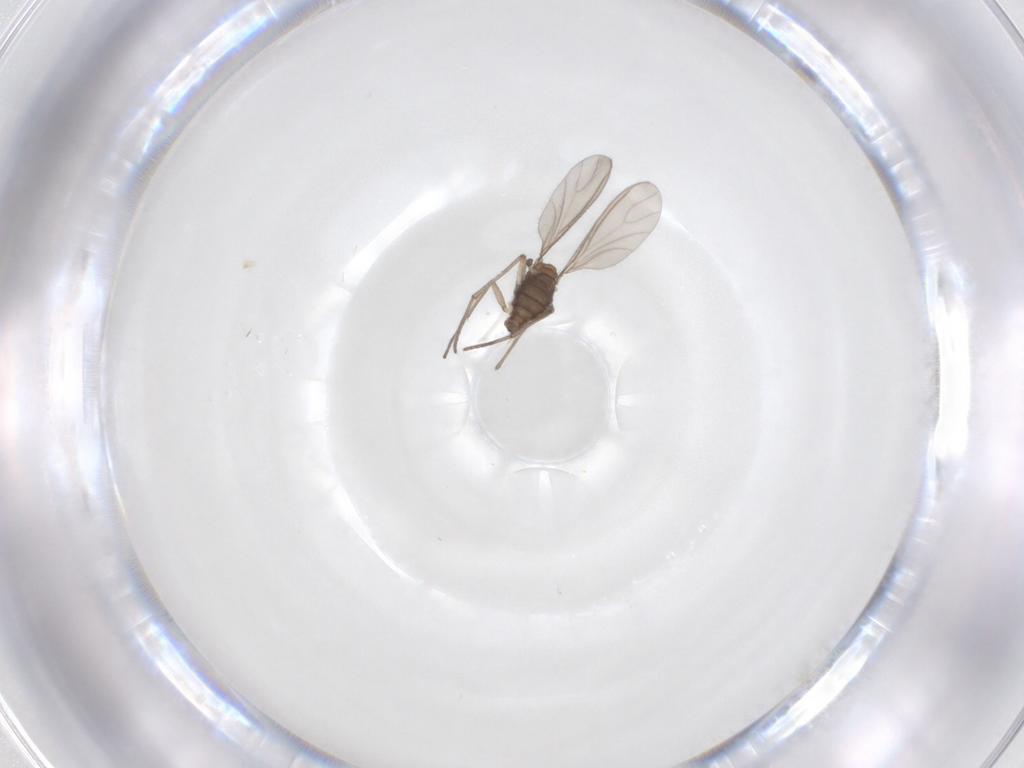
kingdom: Animalia
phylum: Arthropoda
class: Insecta
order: Diptera
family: Sciaridae
